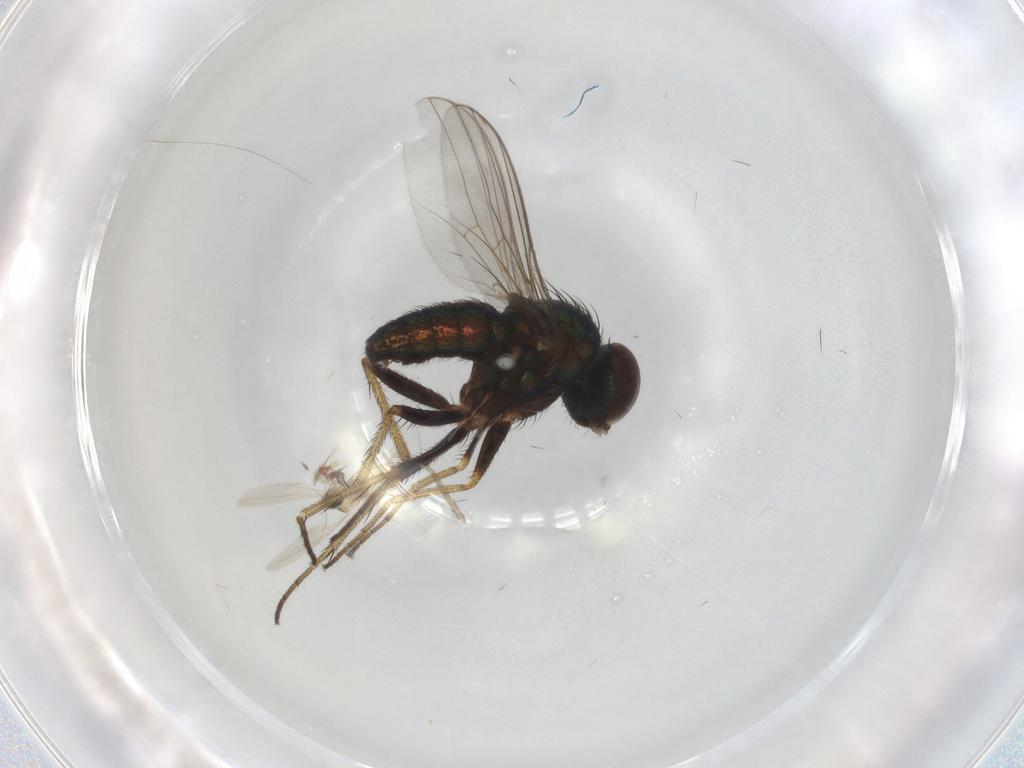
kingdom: Animalia
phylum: Arthropoda
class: Insecta
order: Diptera
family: Dolichopodidae
